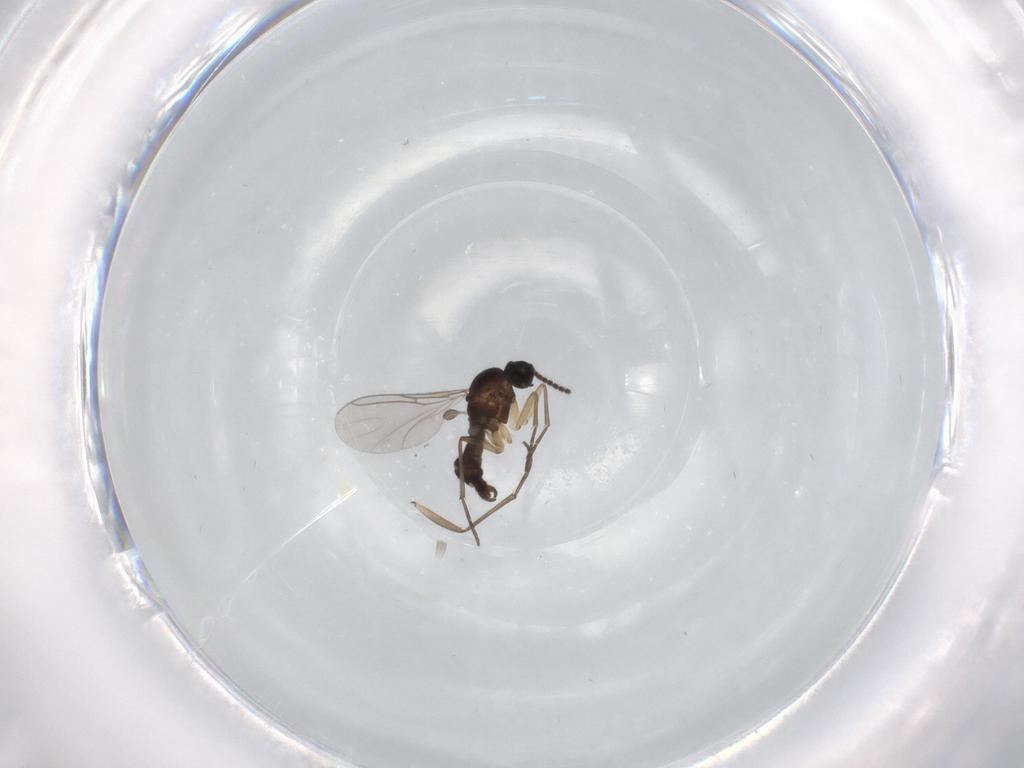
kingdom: Animalia
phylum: Arthropoda
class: Insecta
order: Diptera
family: Sciaridae
